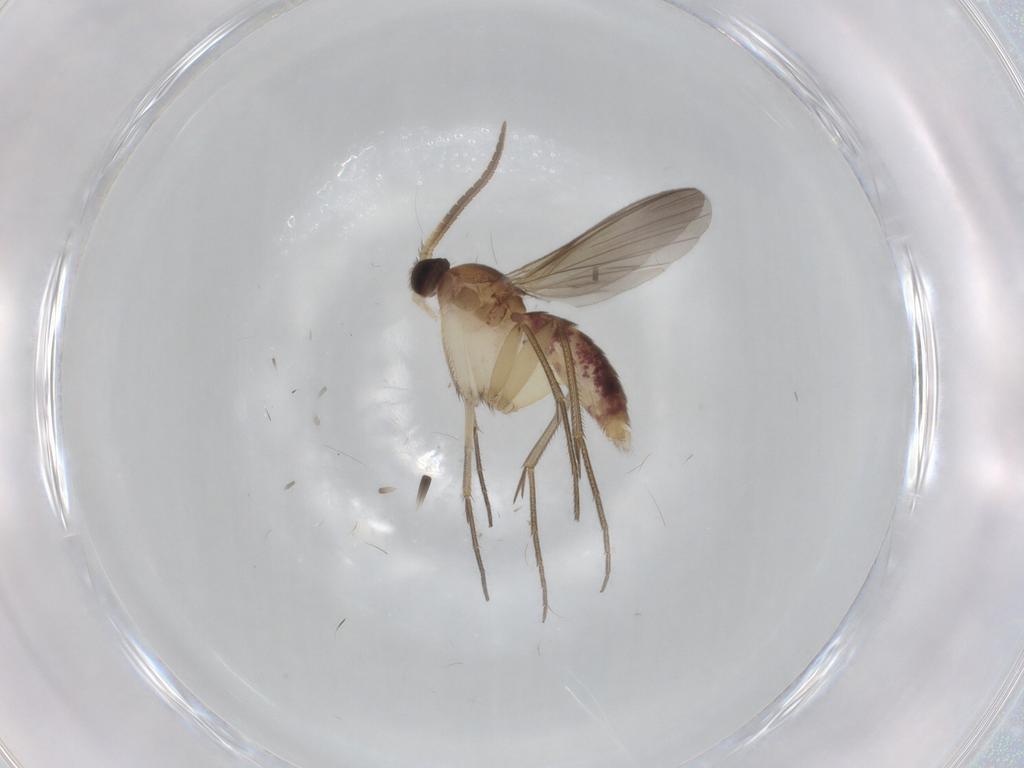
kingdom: Animalia
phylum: Arthropoda
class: Insecta
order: Diptera
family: Mycetophilidae
